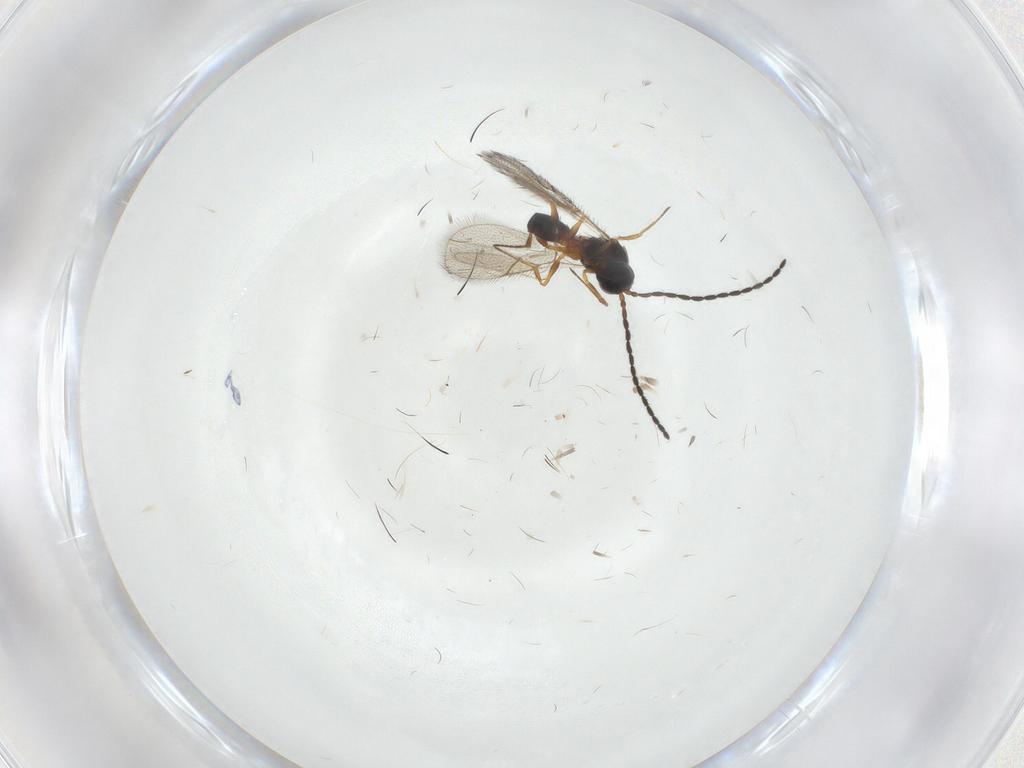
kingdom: Animalia
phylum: Arthropoda
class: Insecta
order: Hymenoptera
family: Figitidae
